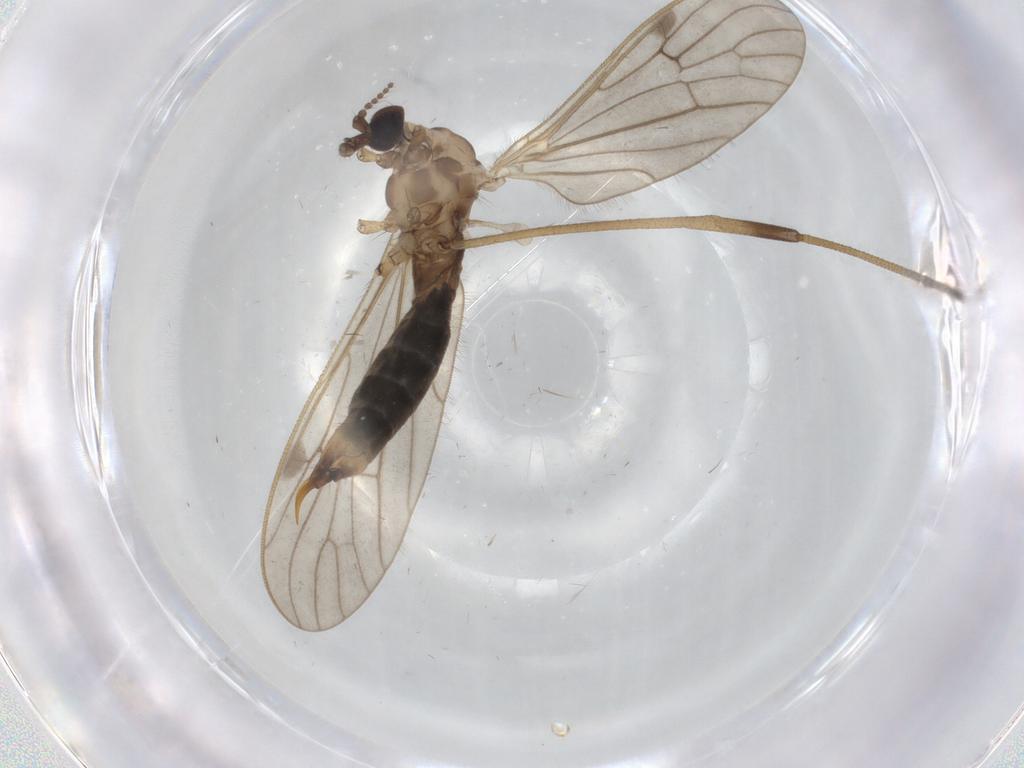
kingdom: Animalia
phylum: Arthropoda
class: Insecta
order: Diptera
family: Limoniidae
